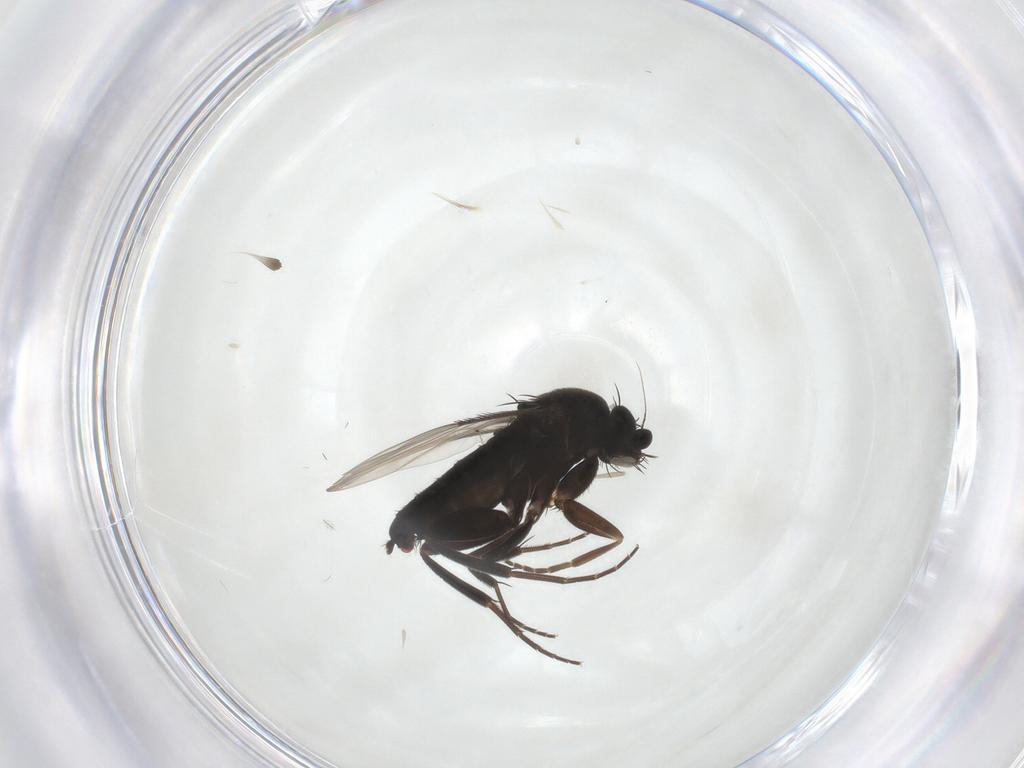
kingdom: Animalia
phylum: Arthropoda
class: Insecta
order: Diptera
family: Phoridae
